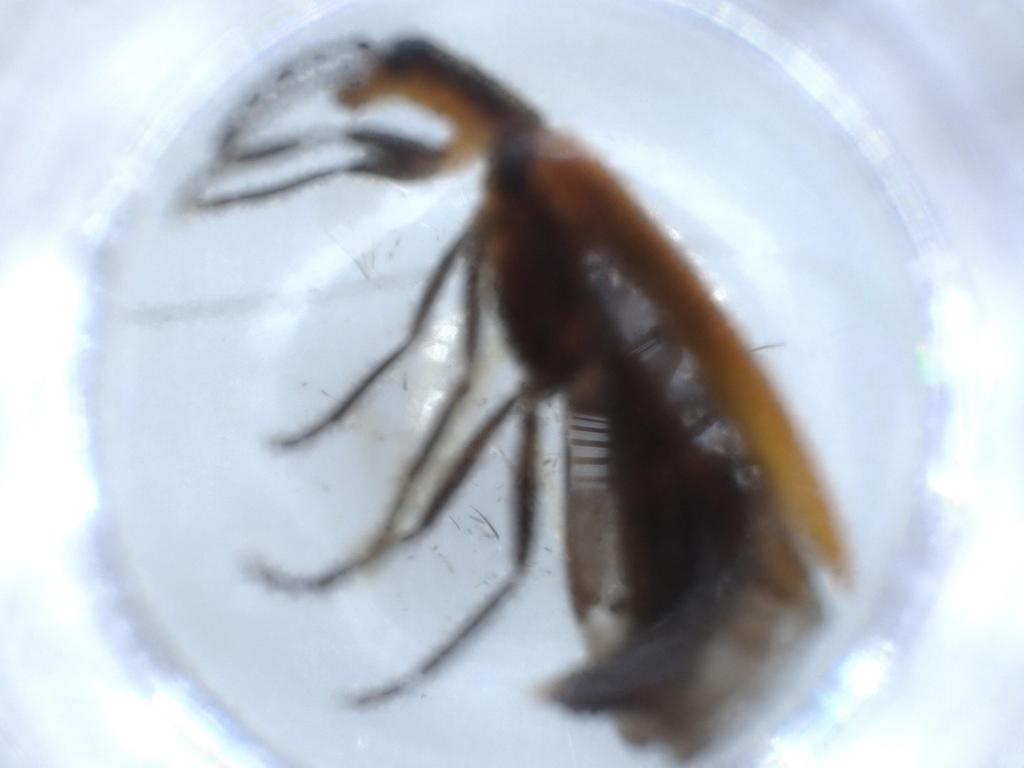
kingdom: Animalia
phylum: Arthropoda
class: Insecta
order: Coleoptera
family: Cleridae
